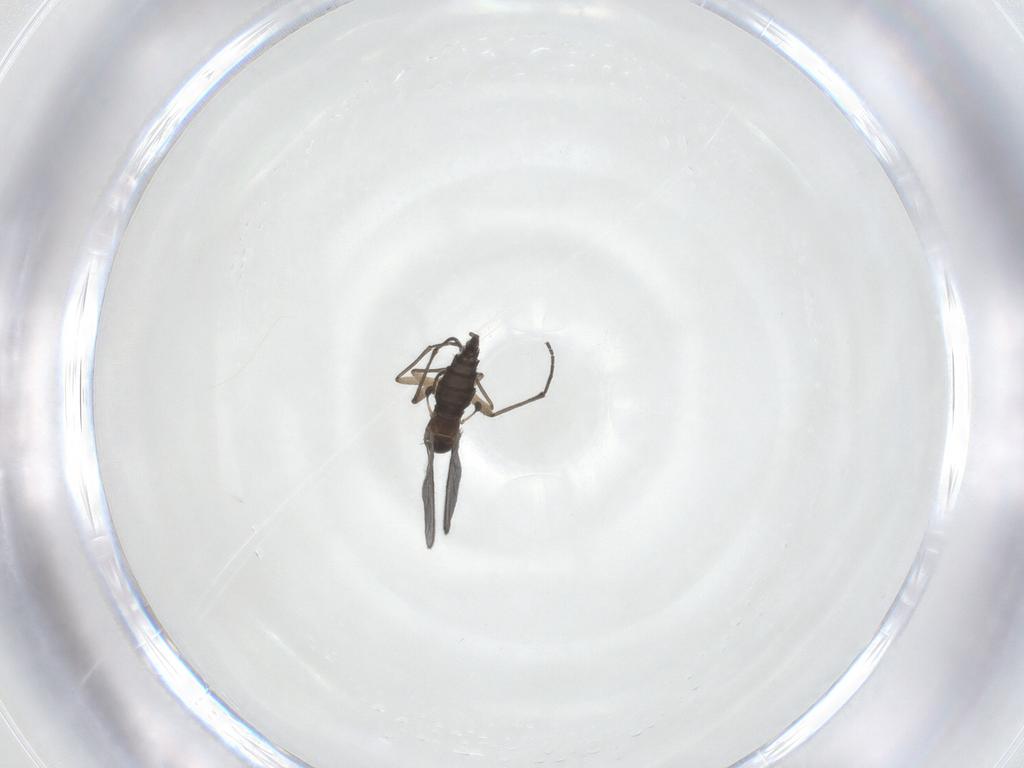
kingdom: Animalia
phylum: Arthropoda
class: Insecta
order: Diptera
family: Sciaridae
